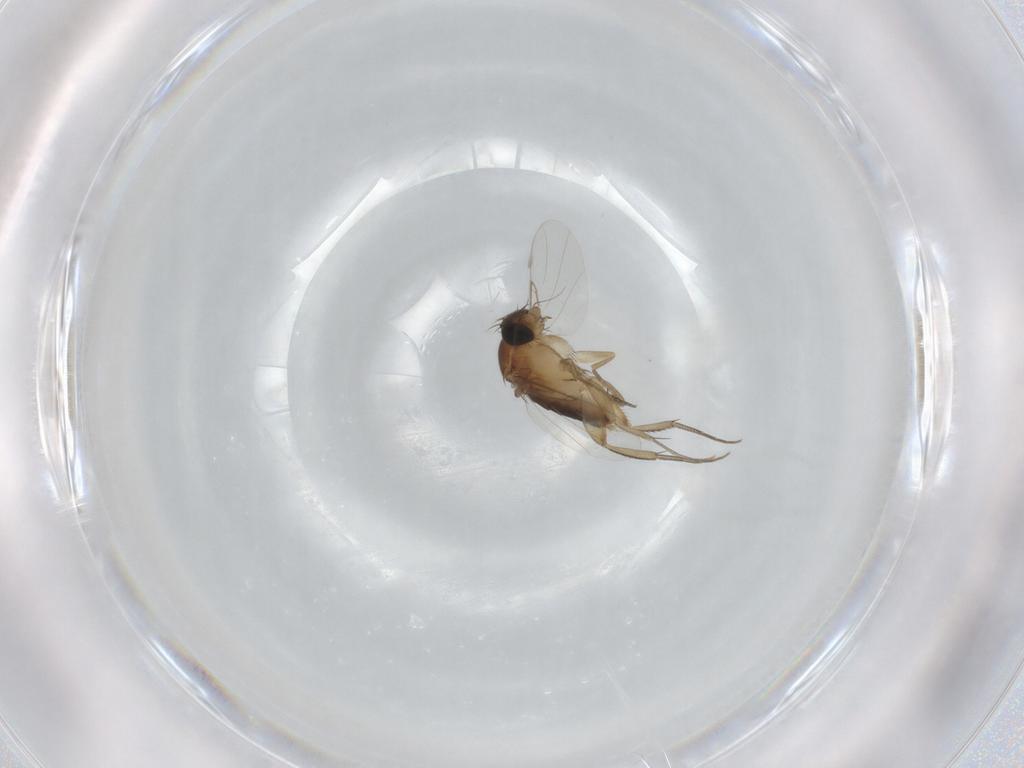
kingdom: Animalia
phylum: Arthropoda
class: Insecta
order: Diptera
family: Phoridae
